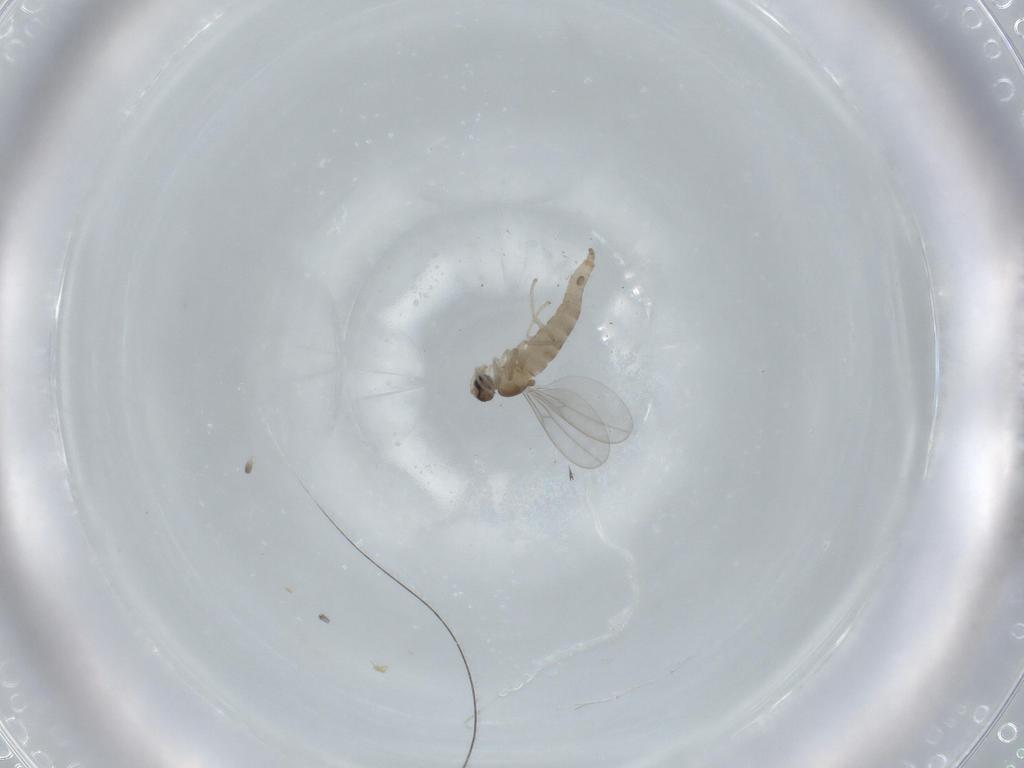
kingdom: Animalia
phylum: Arthropoda
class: Insecta
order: Diptera
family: Cecidomyiidae
